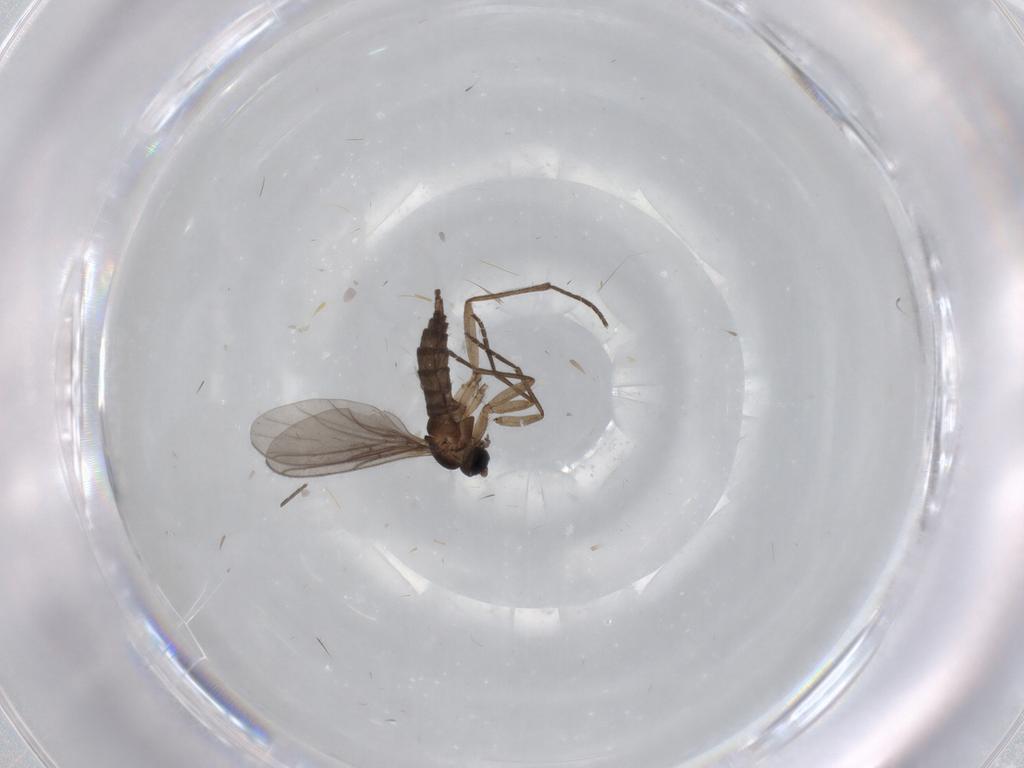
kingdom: Animalia
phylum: Arthropoda
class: Insecta
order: Diptera
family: Sciaridae
